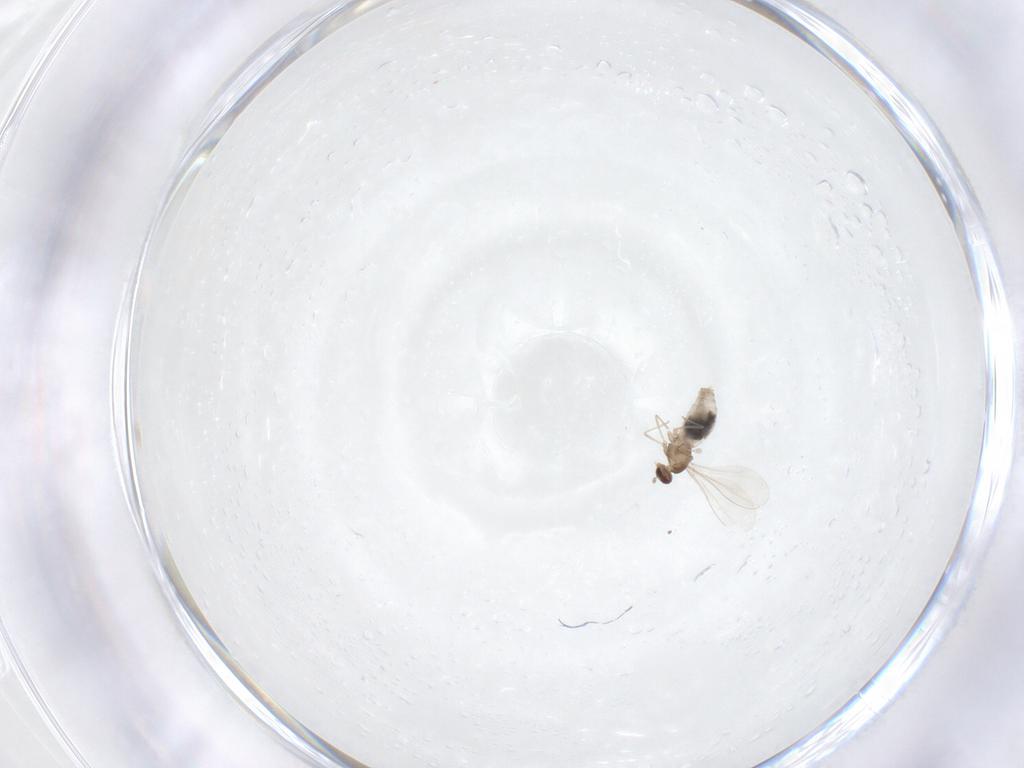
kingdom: Animalia
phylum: Arthropoda
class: Insecta
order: Diptera
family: Cecidomyiidae
